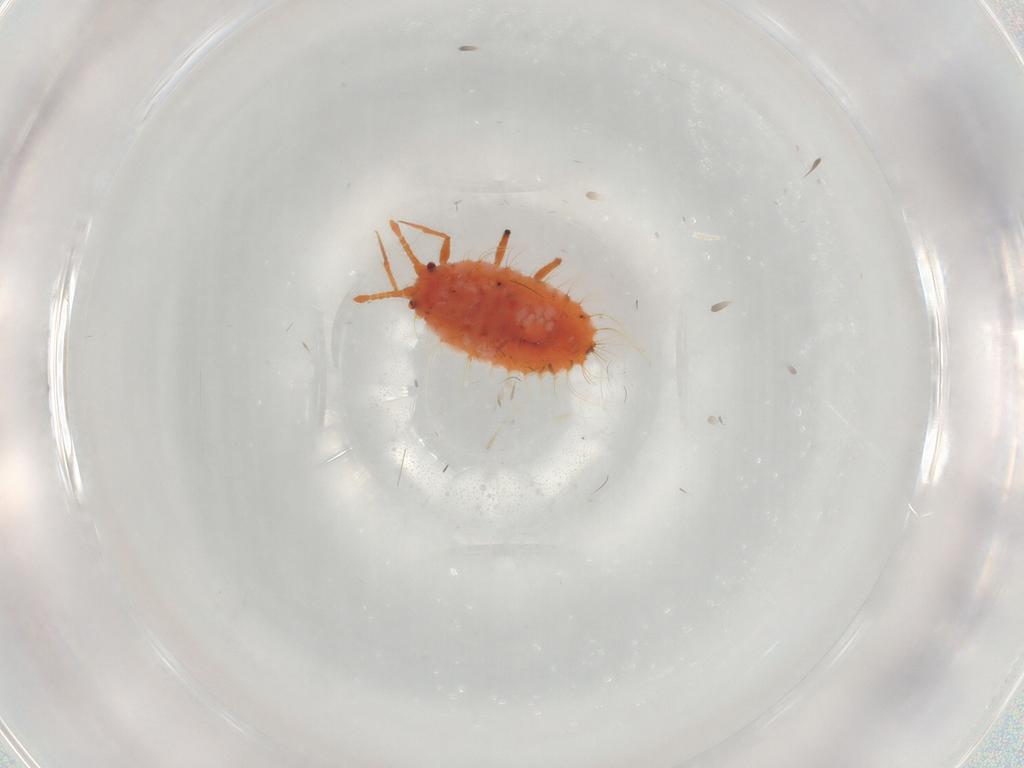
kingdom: Animalia
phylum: Arthropoda
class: Insecta
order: Hemiptera
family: Coccoidea_incertae_sedis
